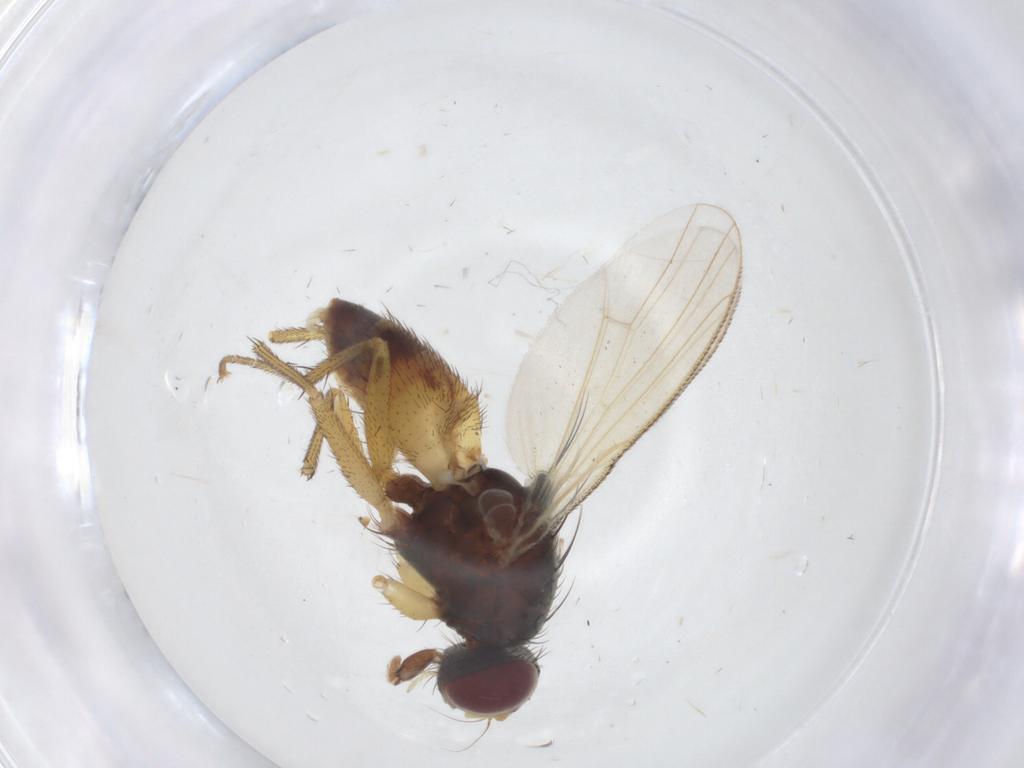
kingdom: Animalia
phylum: Arthropoda
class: Insecta
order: Diptera
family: Muscidae
